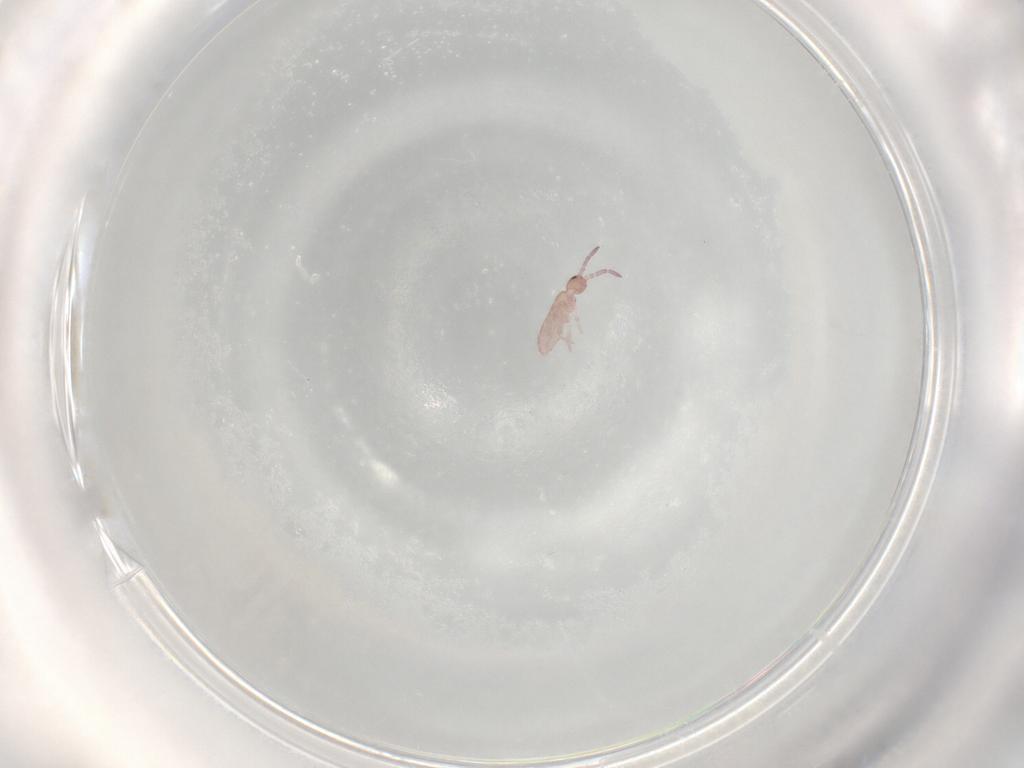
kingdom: Animalia
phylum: Arthropoda
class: Collembola
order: Entomobryomorpha
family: Tomoceridae
